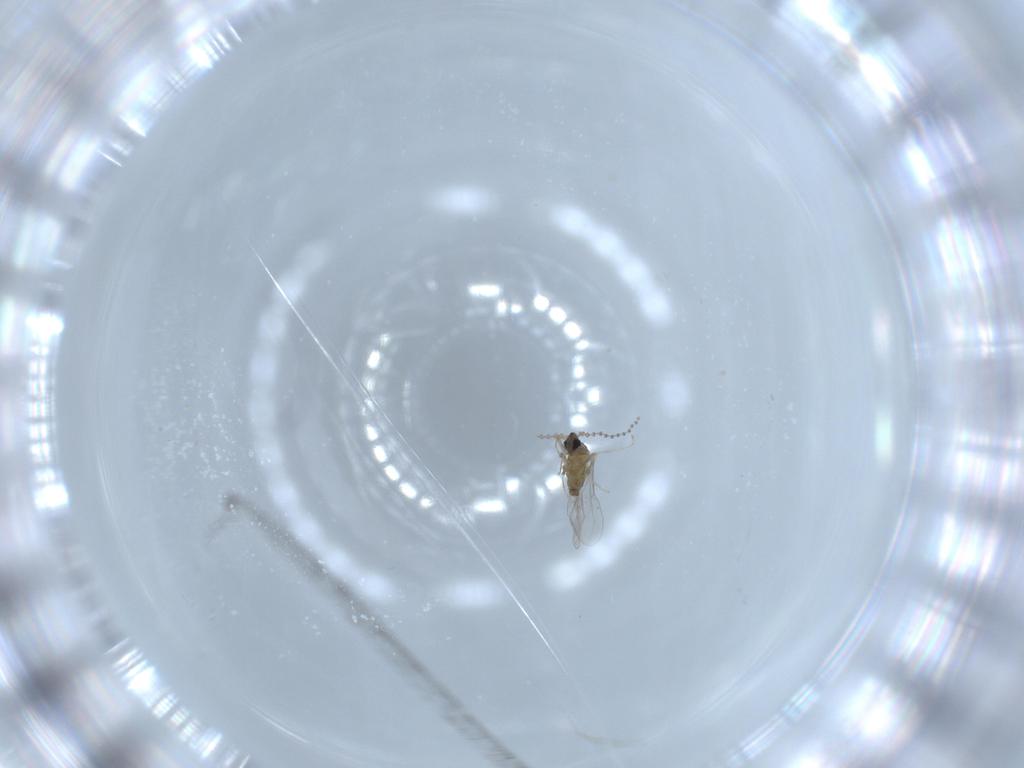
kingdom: Animalia
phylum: Arthropoda
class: Insecta
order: Diptera
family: Cecidomyiidae
